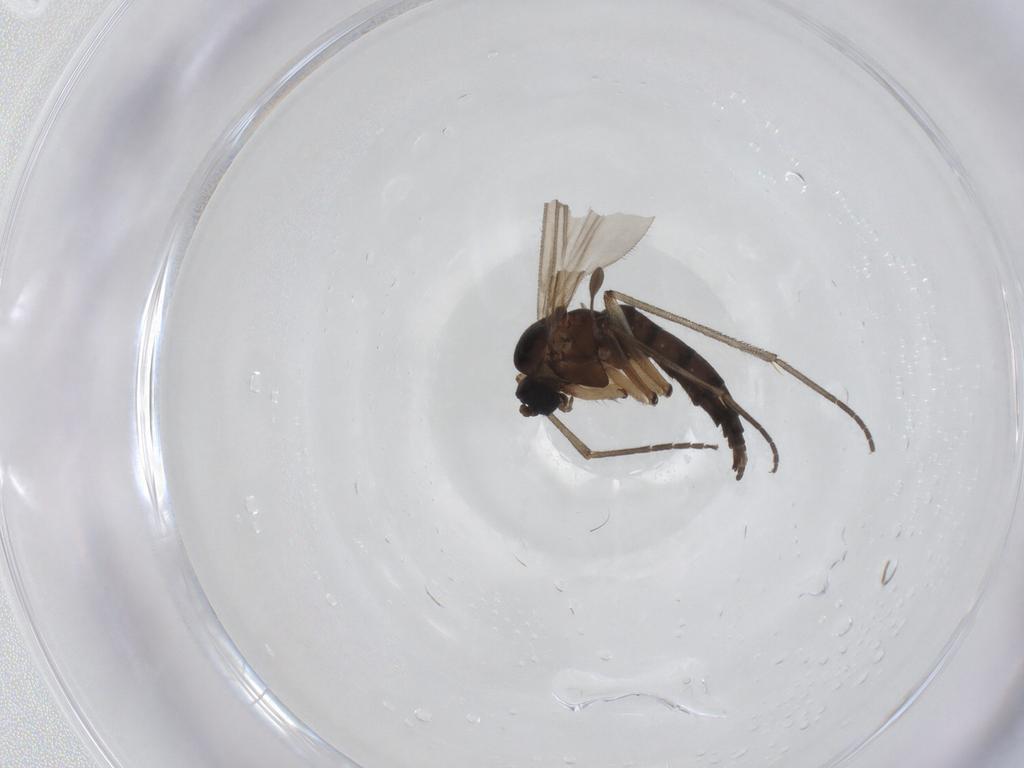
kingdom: Animalia
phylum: Arthropoda
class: Insecta
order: Diptera
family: Sciaridae
